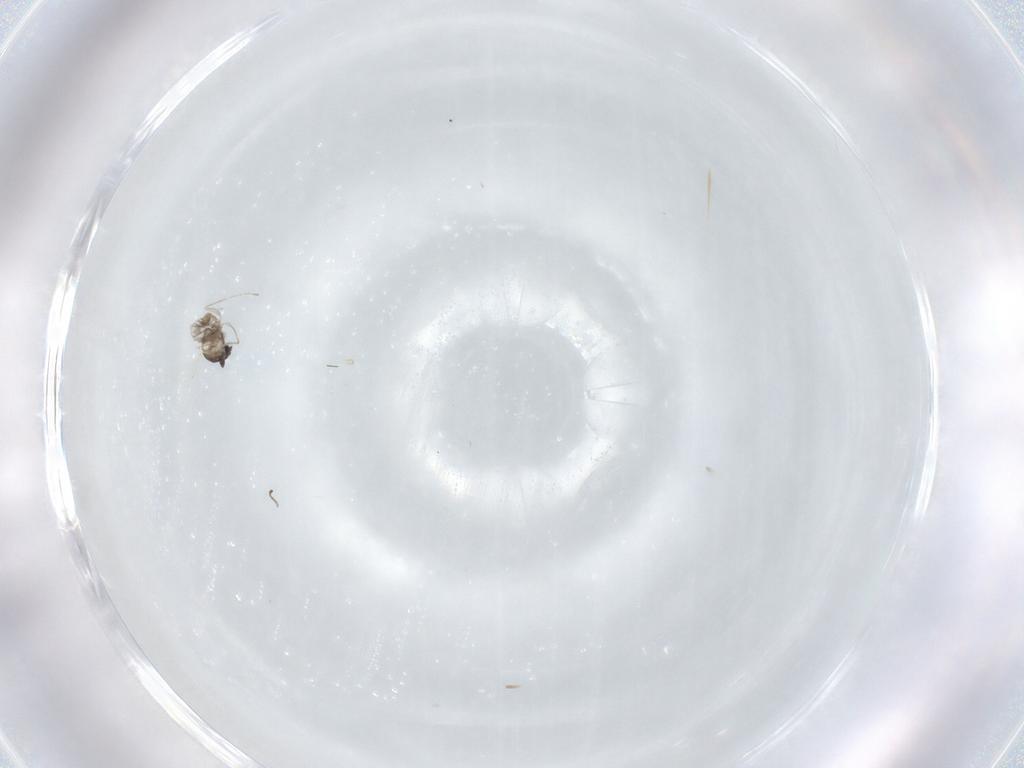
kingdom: Animalia
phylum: Arthropoda
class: Insecta
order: Diptera
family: Cecidomyiidae
